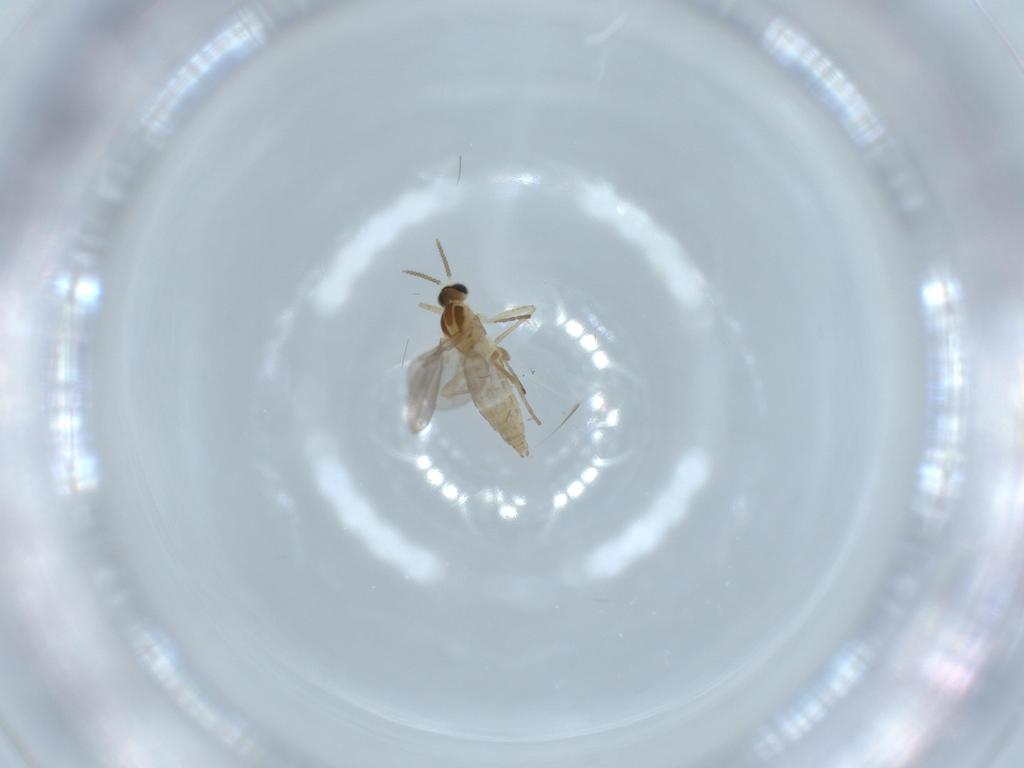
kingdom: Animalia
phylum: Arthropoda
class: Insecta
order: Diptera
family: Cecidomyiidae
